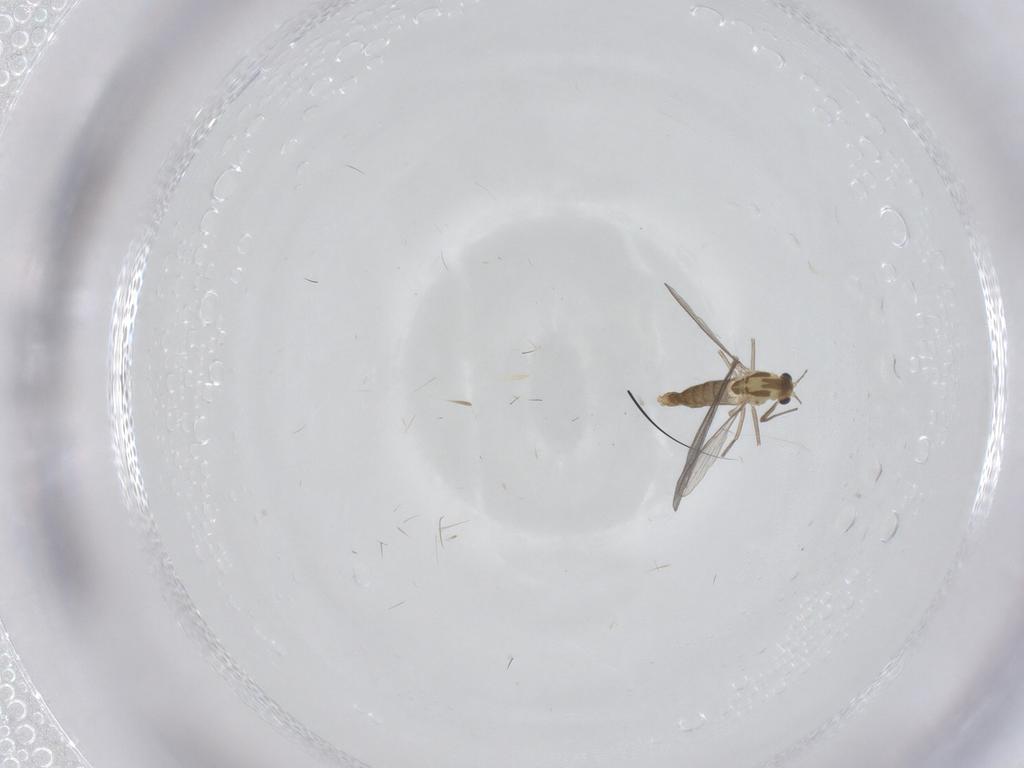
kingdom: Animalia
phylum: Arthropoda
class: Insecta
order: Diptera
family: Chironomidae
